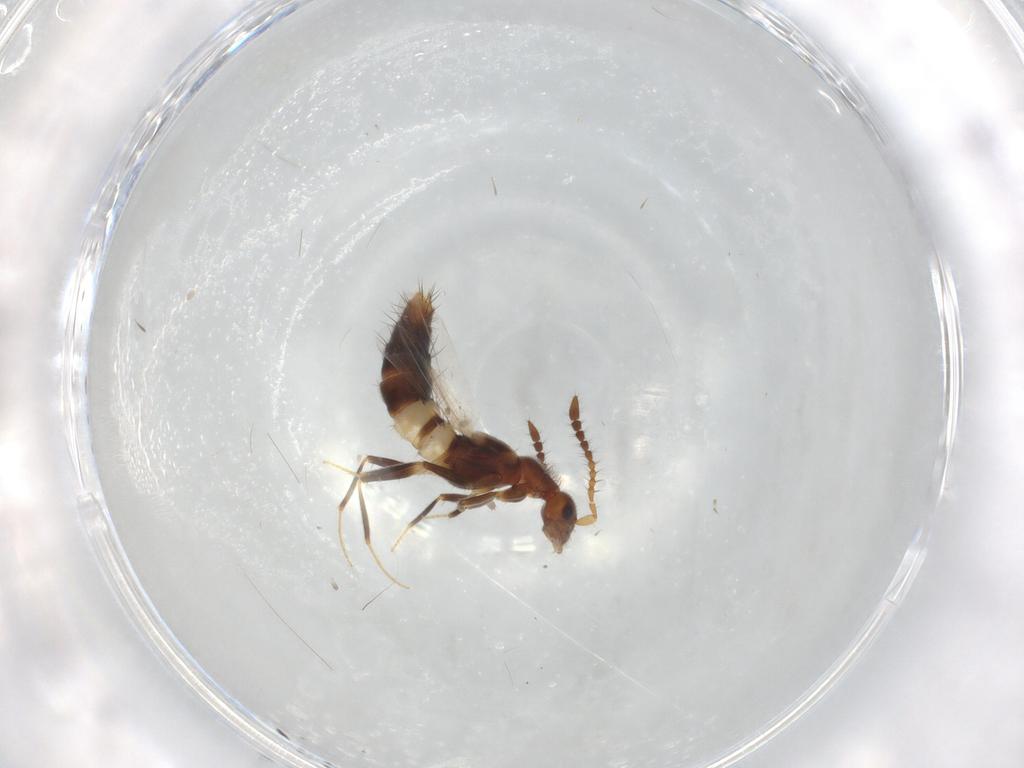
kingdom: Animalia
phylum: Arthropoda
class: Insecta
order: Coleoptera
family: Staphylinidae
